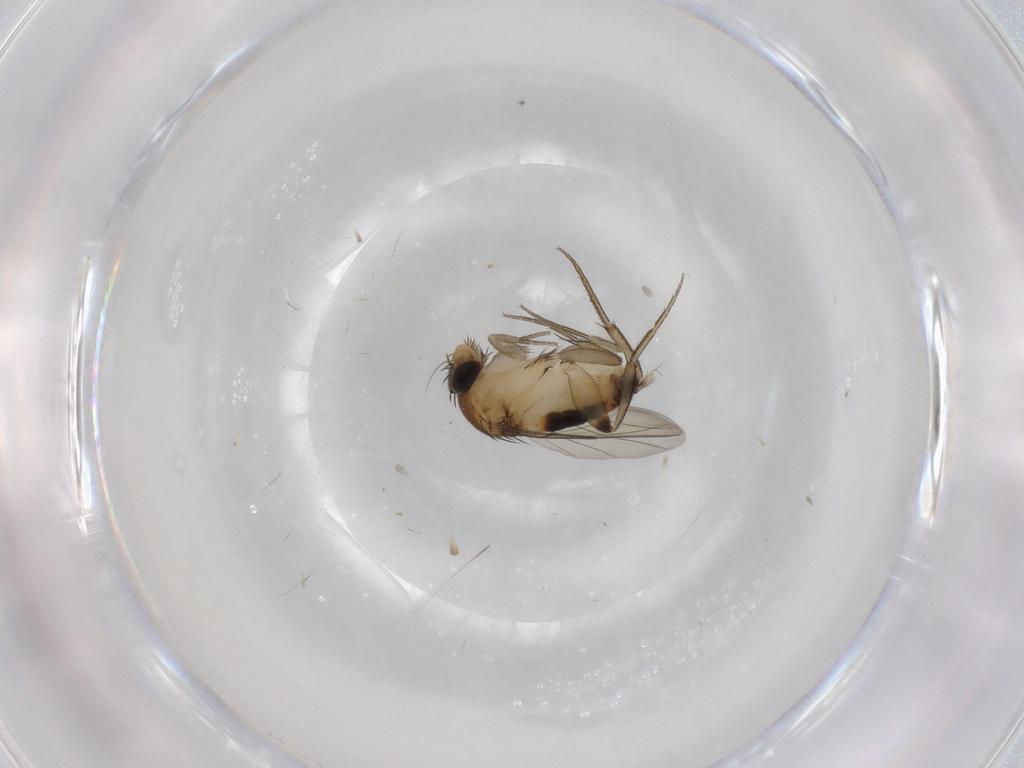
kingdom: Animalia
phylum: Arthropoda
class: Insecta
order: Diptera
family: Phoridae
